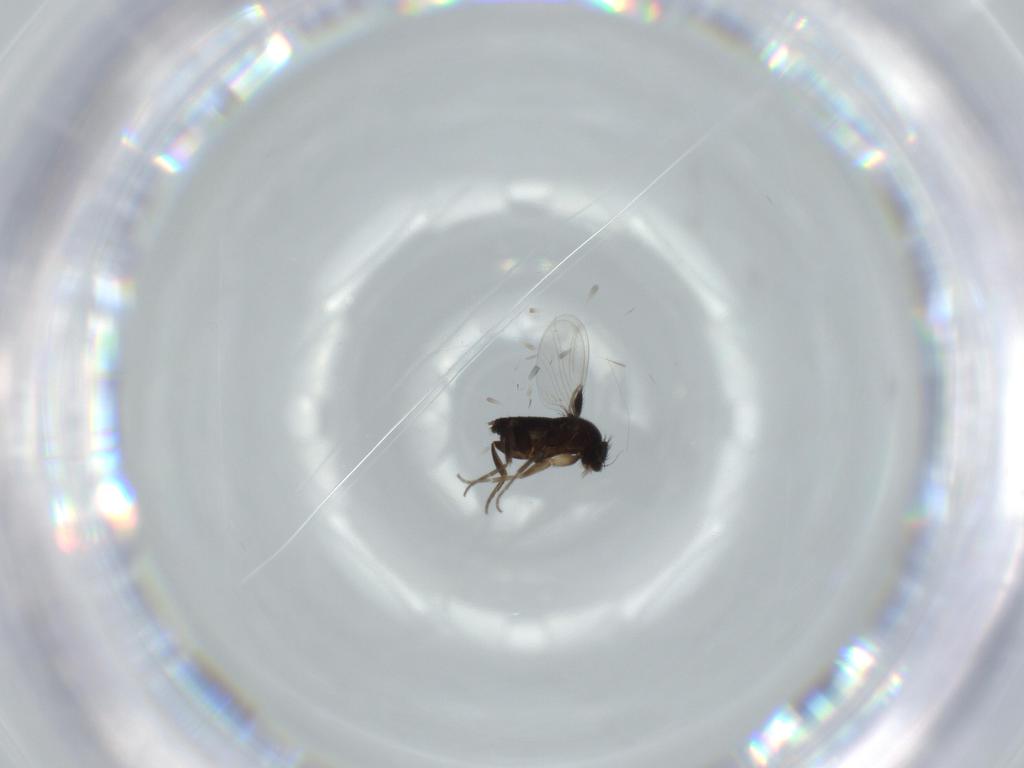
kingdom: Animalia
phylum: Arthropoda
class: Insecta
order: Diptera
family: Phoridae
